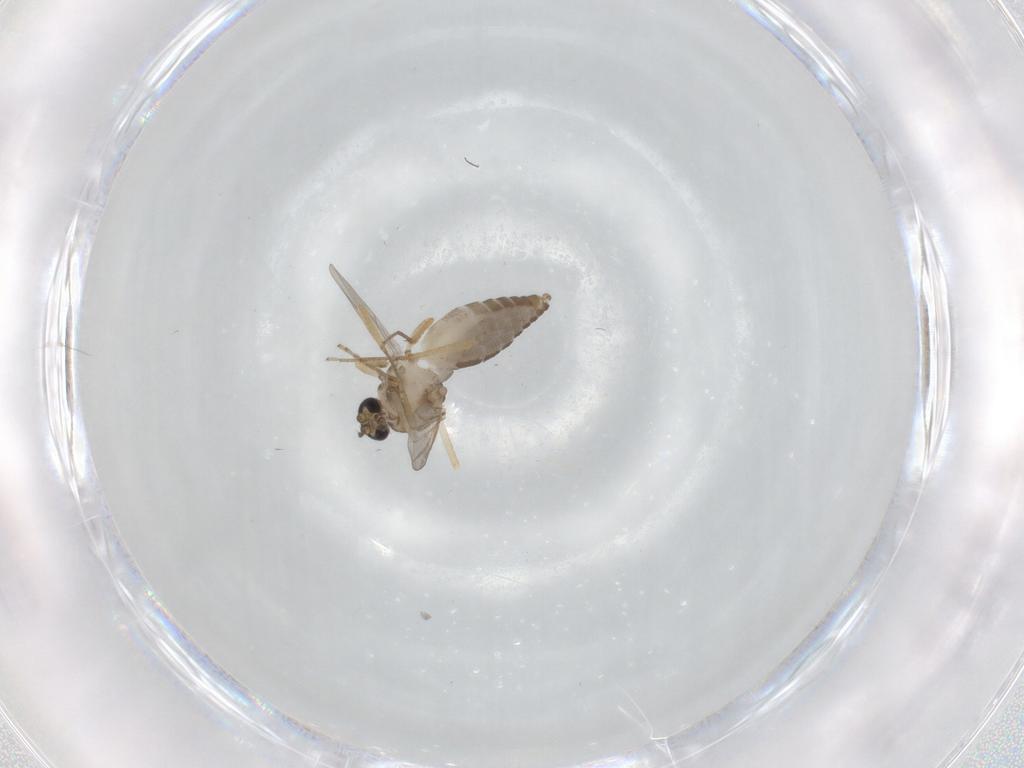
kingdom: Animalia
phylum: Arthropoda
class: Insecta
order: Diptera
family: Ceratopogonidae
